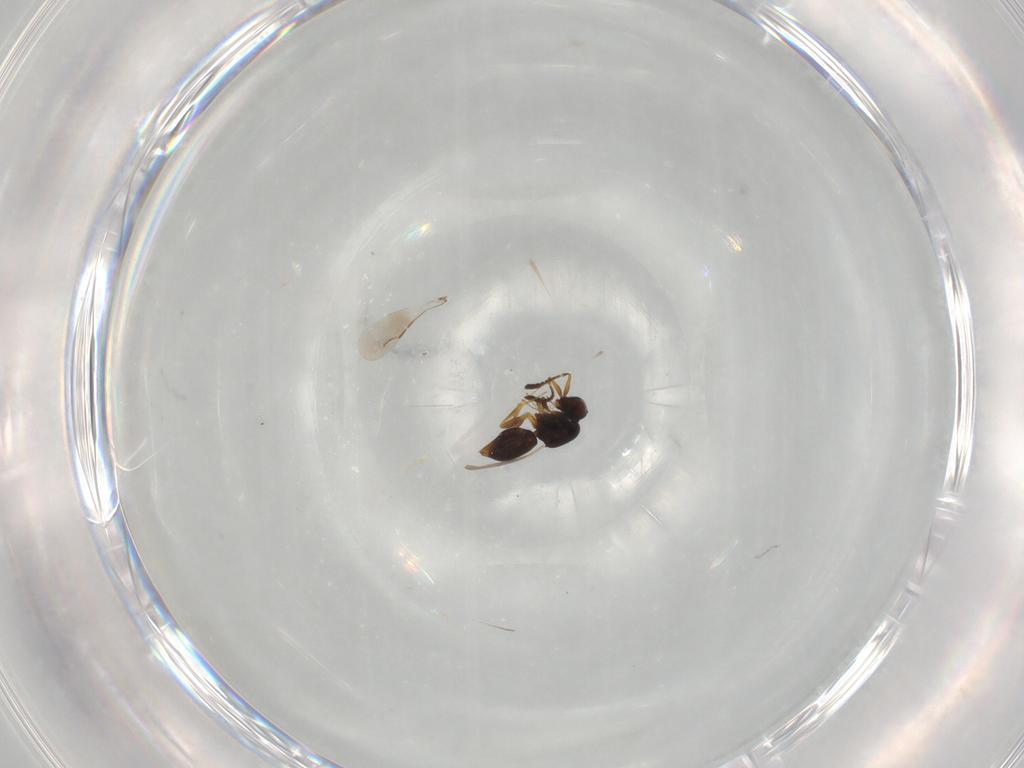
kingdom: Animalia
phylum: Arthropoda
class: Insecta
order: Hymenoptera
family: Ceraphronidae
